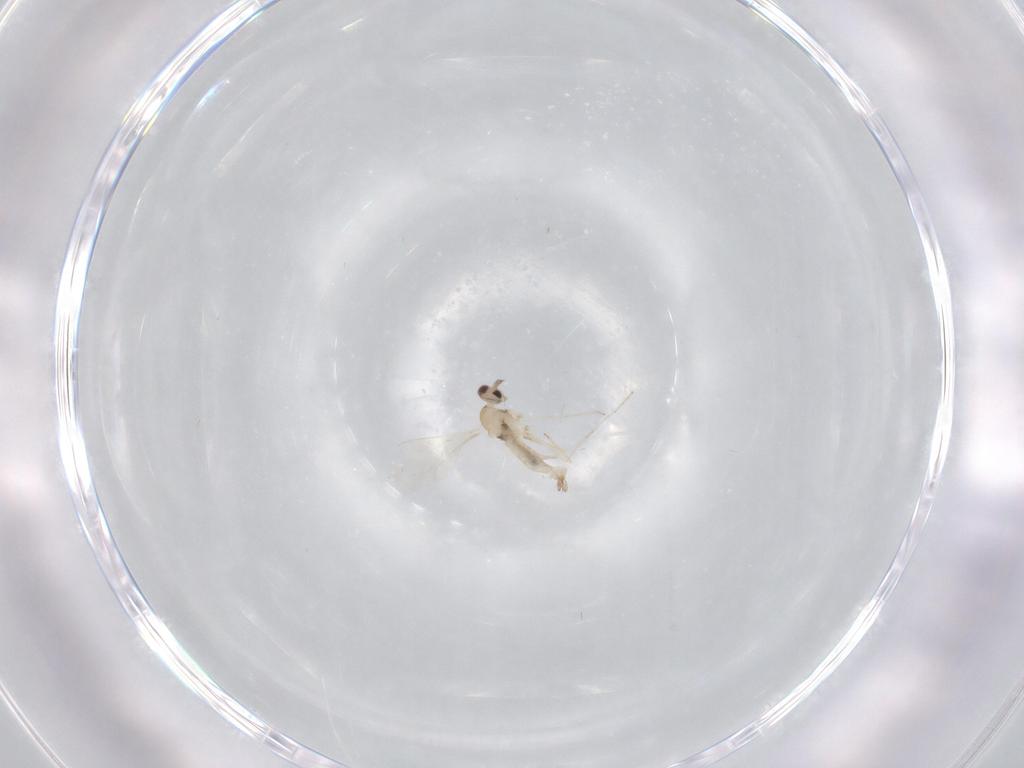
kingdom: Animalia
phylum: Arthropoda
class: Insecta
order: Diptera
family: Cecidomyiidae
